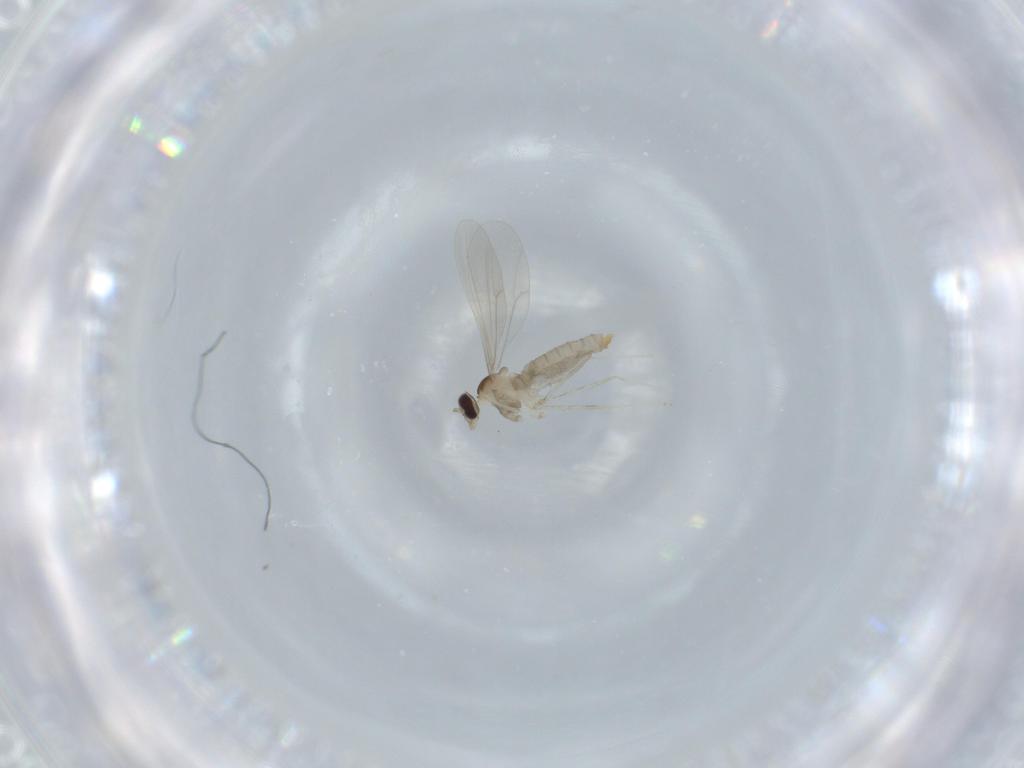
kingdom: Animalia
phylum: Arthropoda
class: Insecta
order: Diptera
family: Cecidomyiidae
